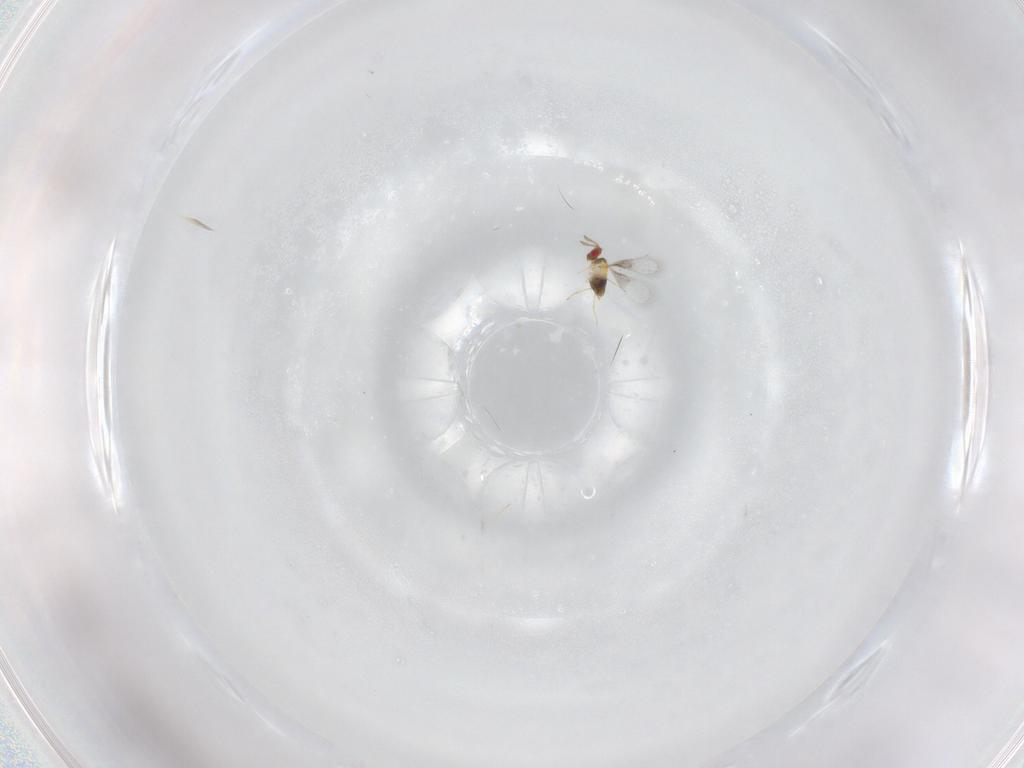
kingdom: Animalia
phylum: Arthropoda
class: Insecta
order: Hymenoptera
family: Trichogrammatidae
